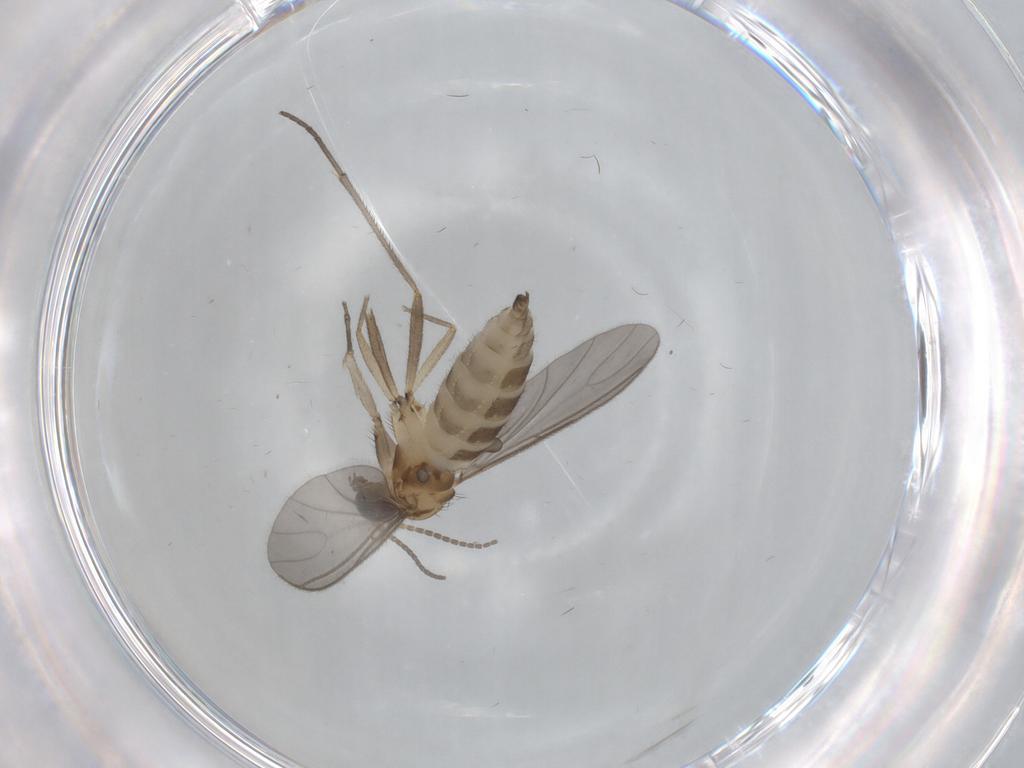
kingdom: Animalia
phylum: Arthropoda
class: Insecta
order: Diptera
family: Sciaridae
